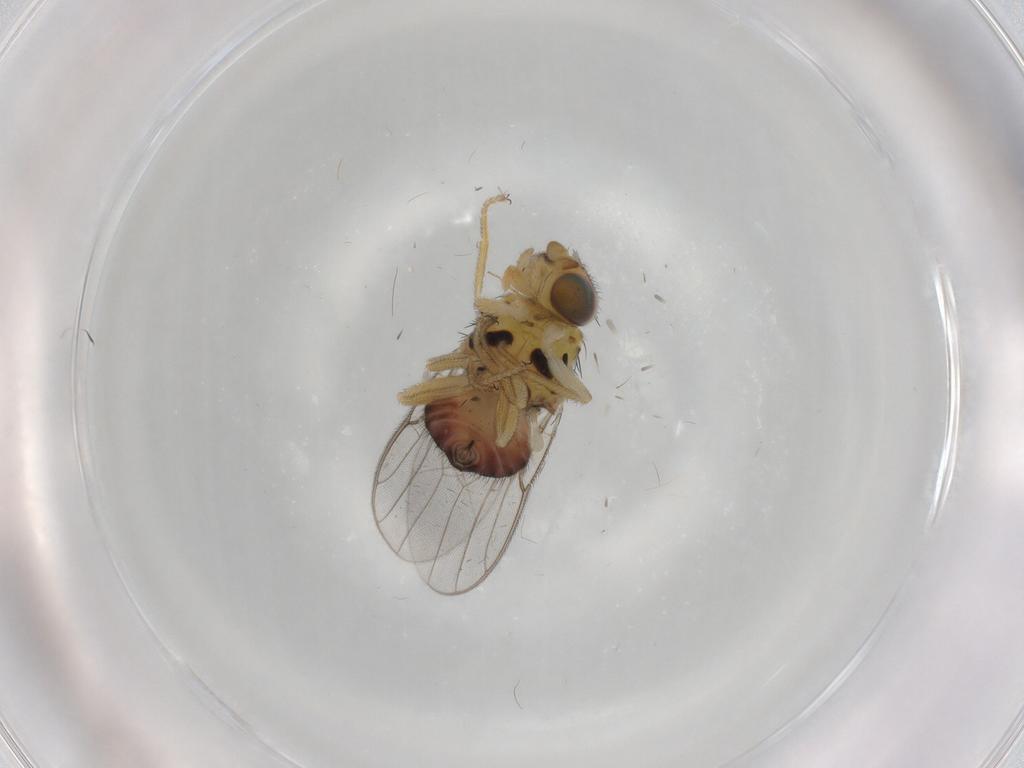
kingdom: Animalia
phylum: Arthropoda
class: Insecta
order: Diptera
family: Chloropidae
